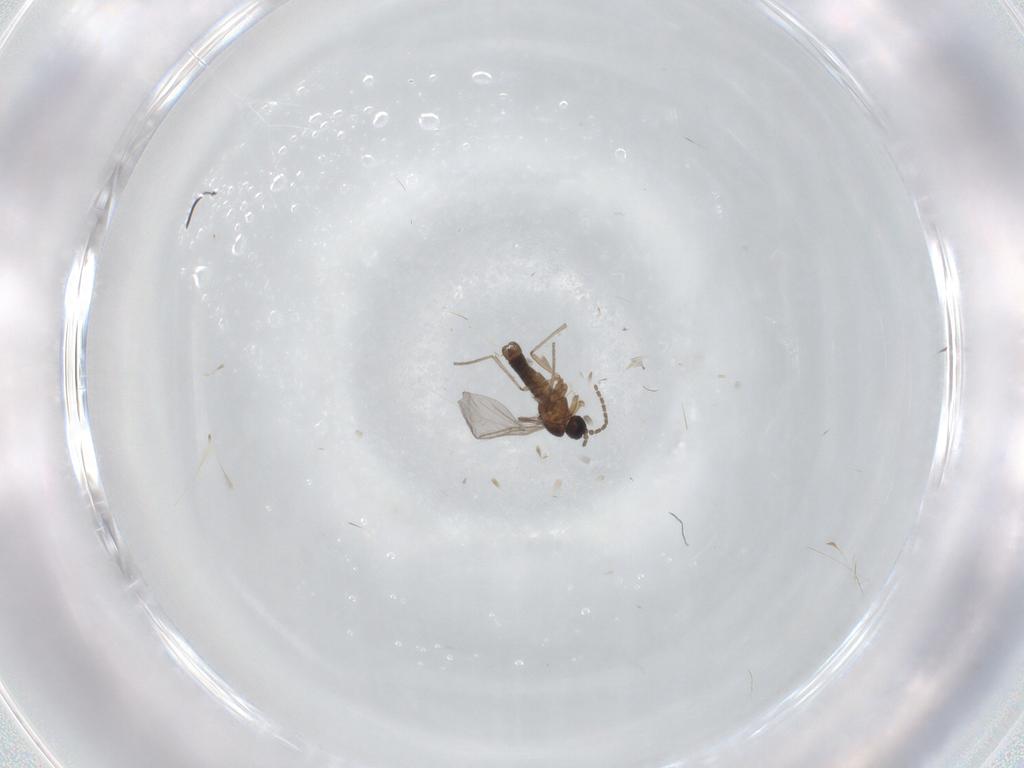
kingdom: Animalia
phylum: Arthropoda
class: Insecta
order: Diptera
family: Sciaridae
